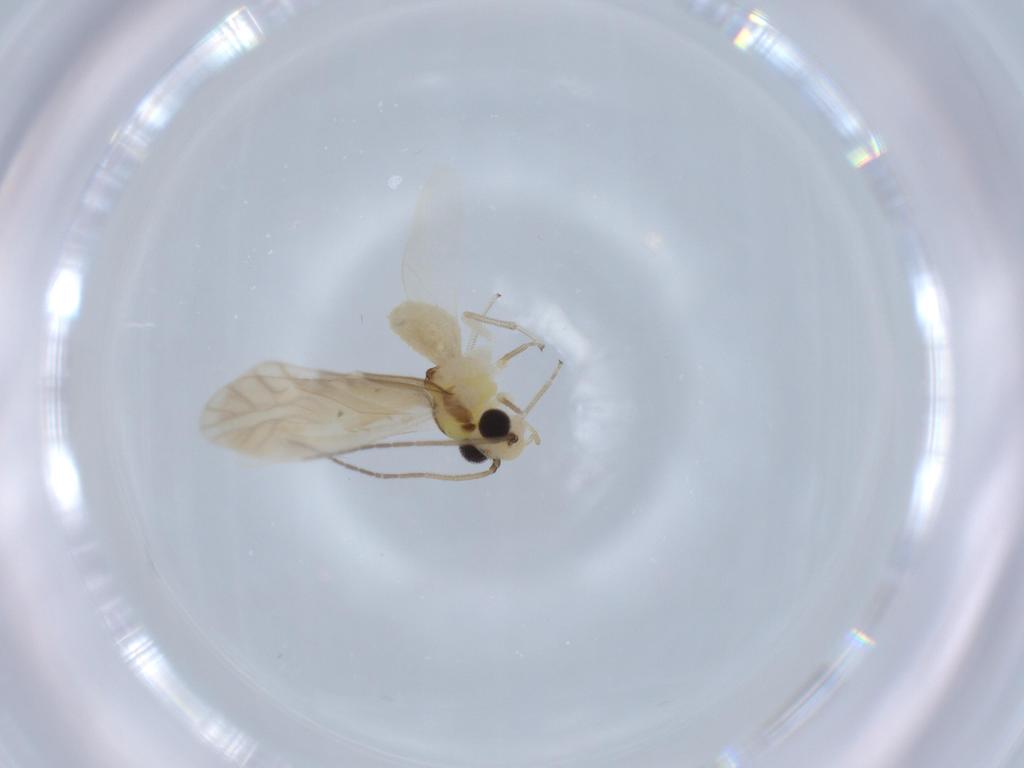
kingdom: Animalia
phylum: Arthropoda
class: Insecta
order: Psocodea
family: Caeciliusidae
